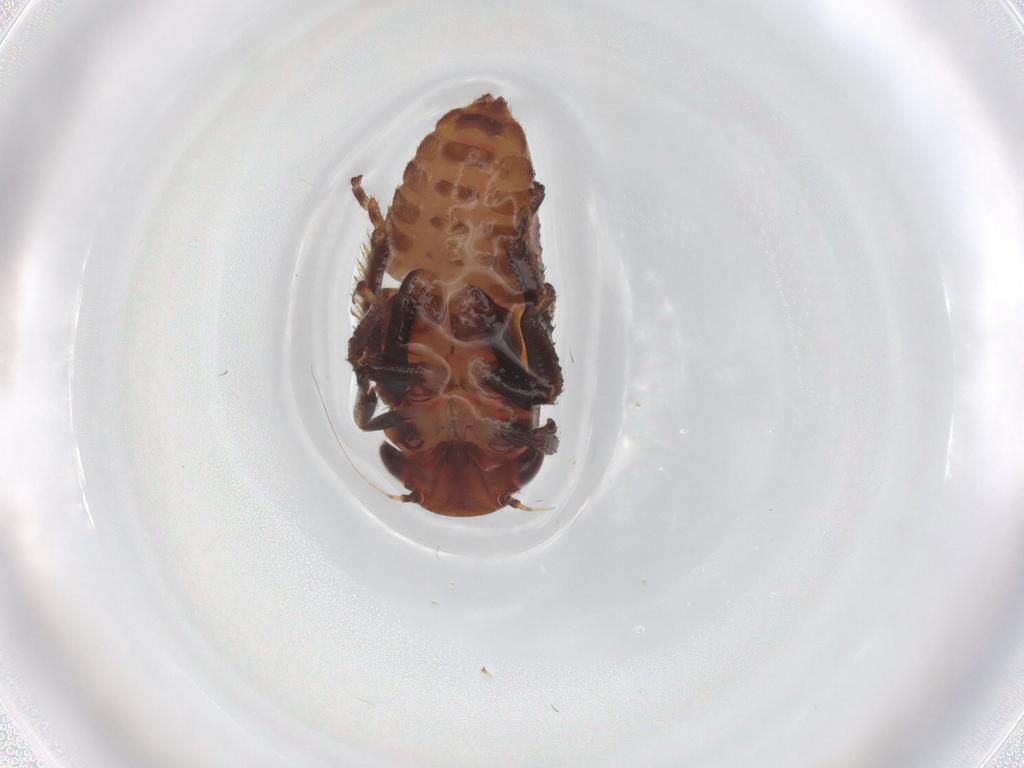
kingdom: Animalia
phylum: Arthropoda
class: Insecta
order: Hemiptera
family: Cicadellidae
